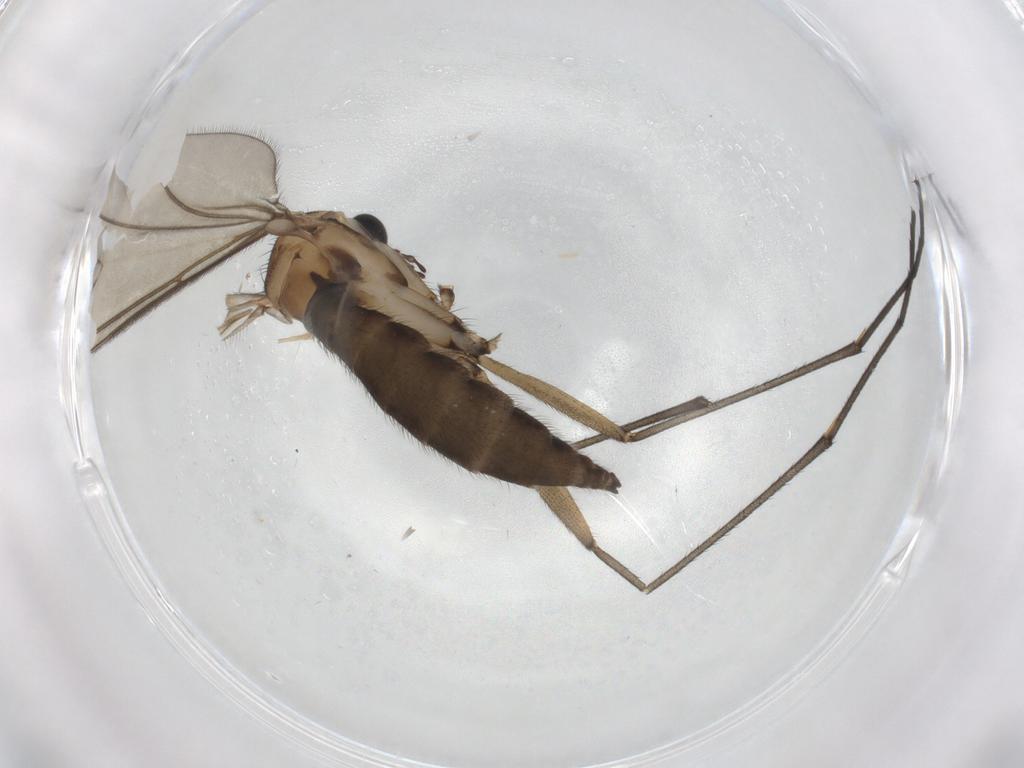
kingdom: Animalia
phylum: Arthropoda
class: Insecta
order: Diptera
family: Sciaridae
